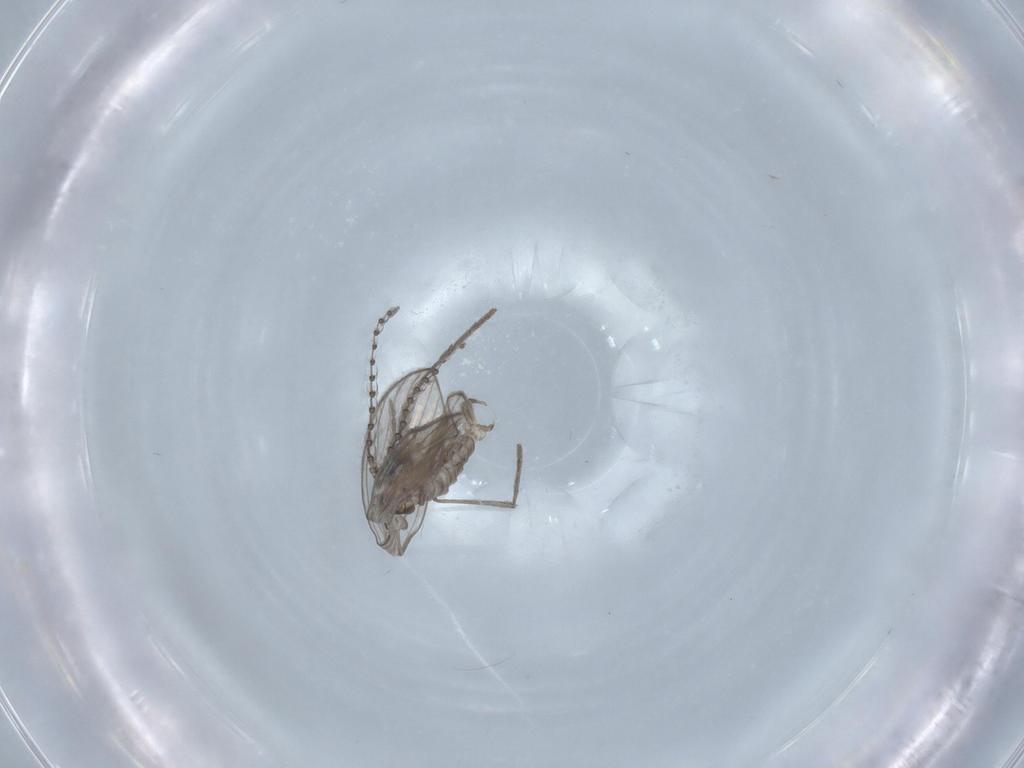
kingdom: Animalia
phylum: Arthropoda
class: Insecta
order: Diptera
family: Psychodidae
